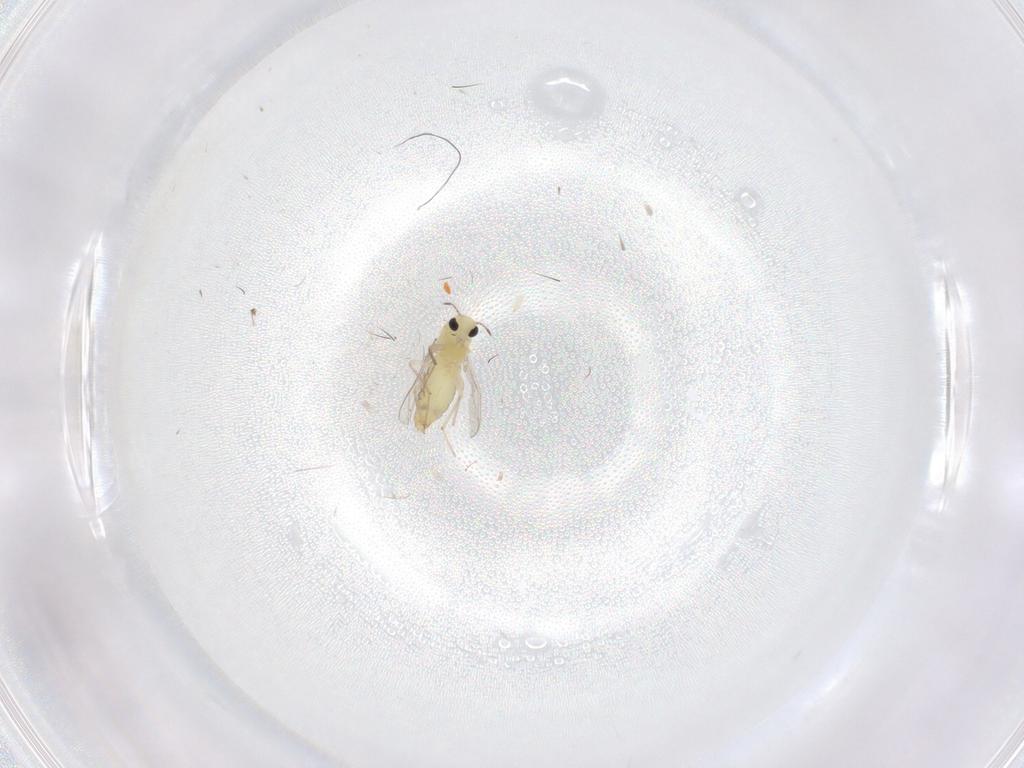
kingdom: Animalia
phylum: Arthropoda
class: Insecta
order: Diptera
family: Chironomidae
